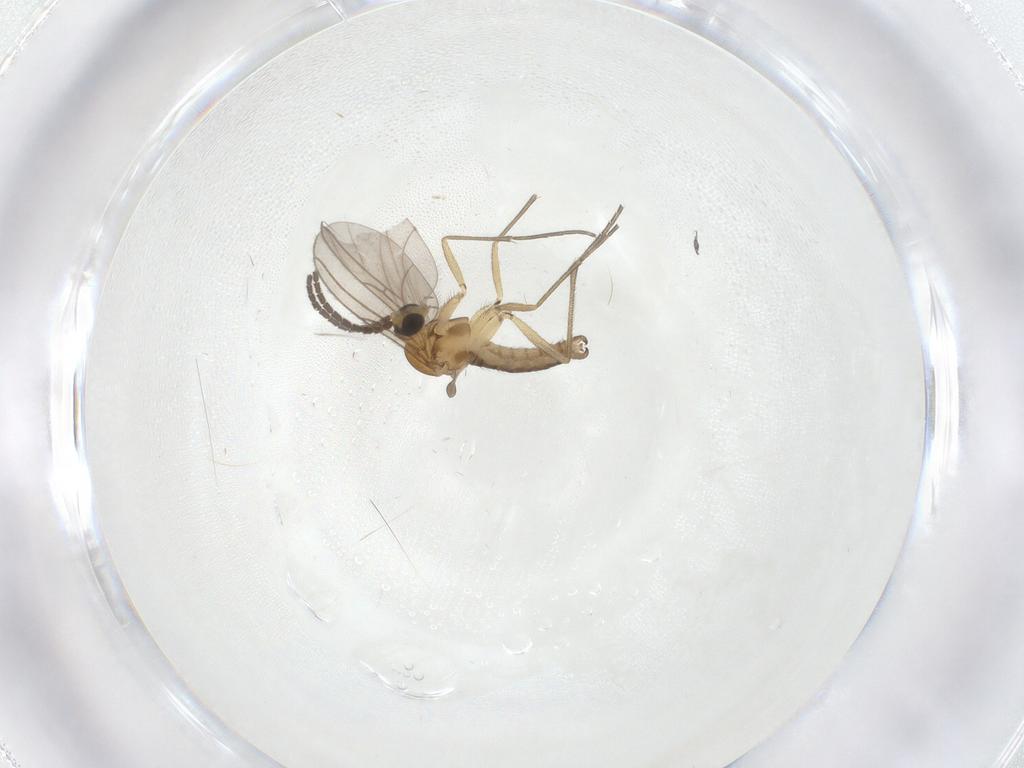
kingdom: Animalia
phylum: Arthropoda
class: Insecta
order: Diptera
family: Sciaridae
